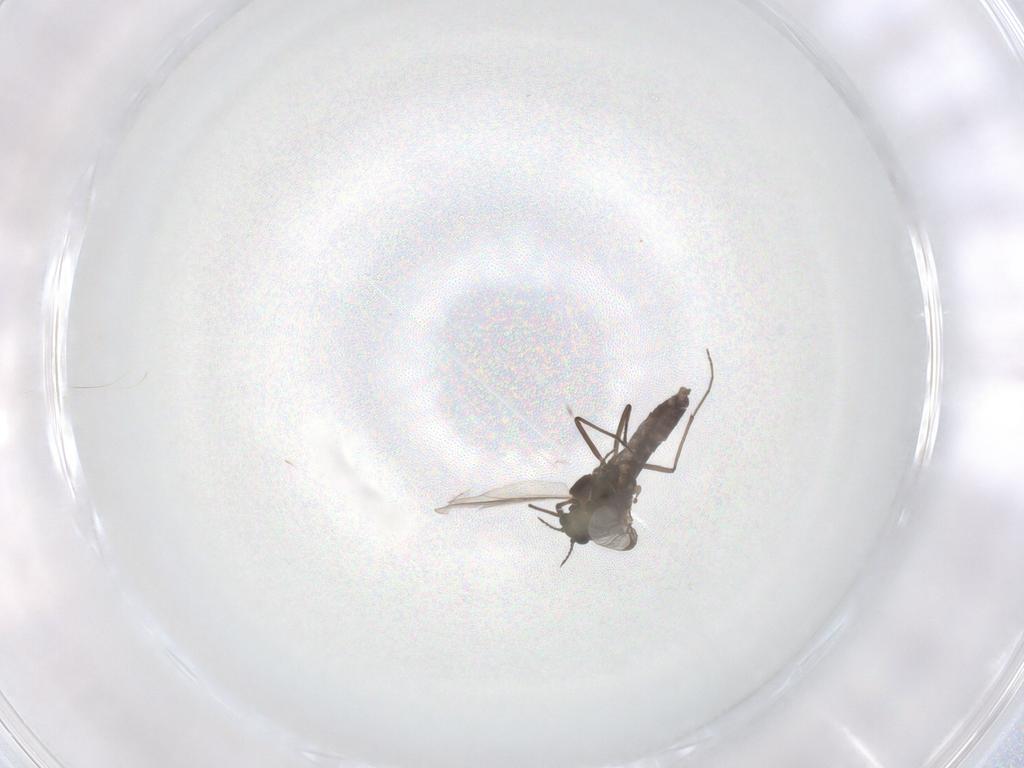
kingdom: Animalia
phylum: Arthropoda
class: Insecta
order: Diptera
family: Chironomidae
